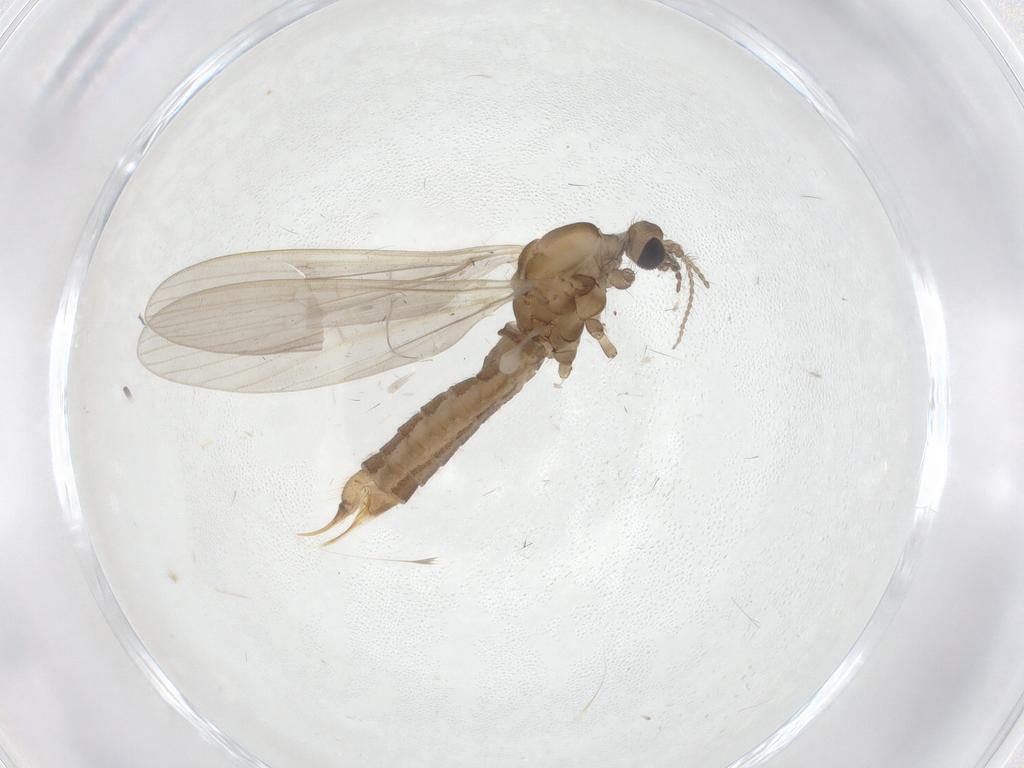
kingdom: Animalia
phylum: Arthropoda
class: Insecta
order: Diptera
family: Limoniidae
